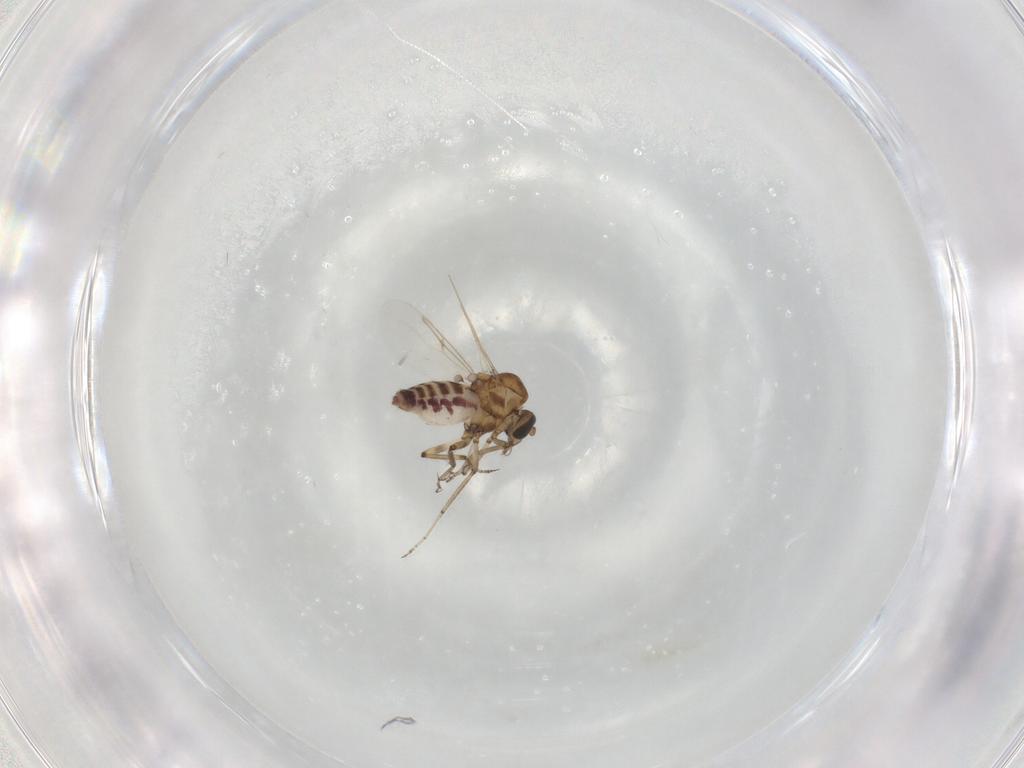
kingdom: Animalia
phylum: Arthropoda
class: Insecta
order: Diptera
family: Ceratopogonidae
